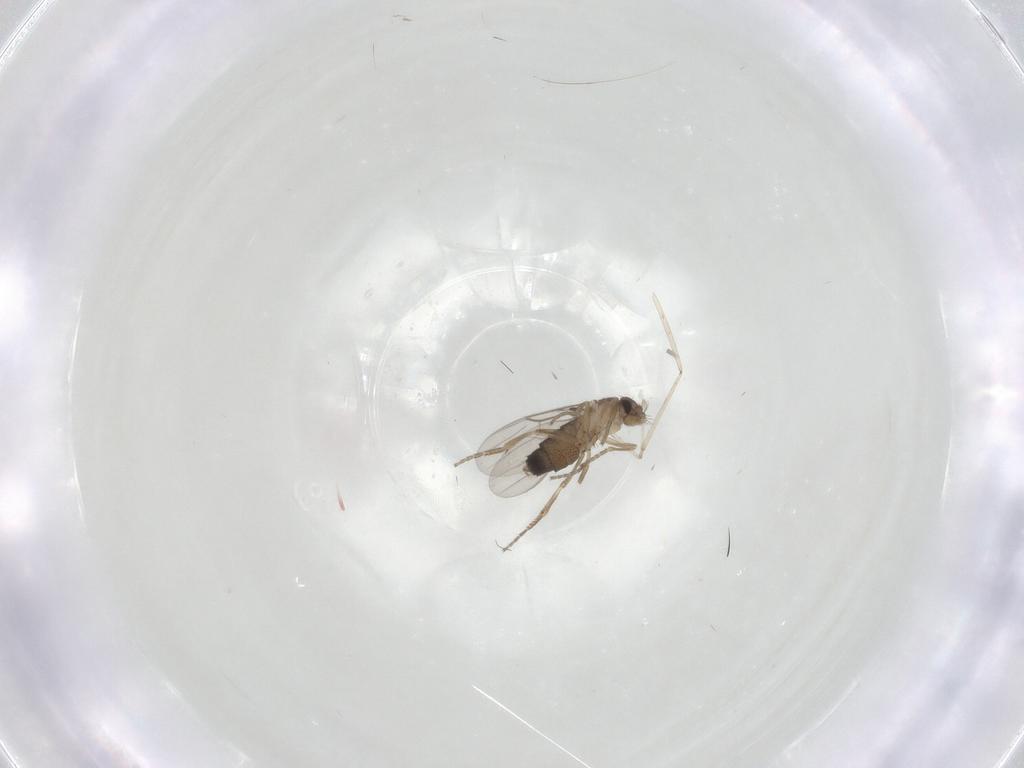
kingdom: Animalia
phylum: Arthropoda
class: Insecta
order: Diptera
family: Cecidomyiidae
